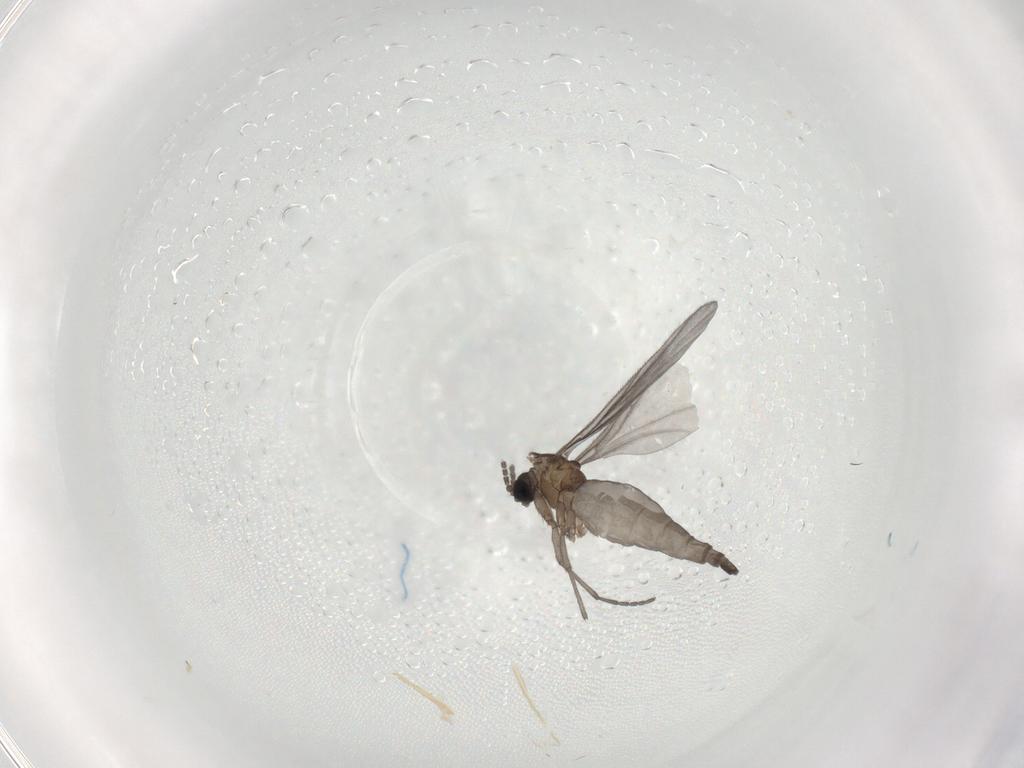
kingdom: Animalia
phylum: Arthropoda
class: Insecta
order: Diptera
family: Sciaridae
